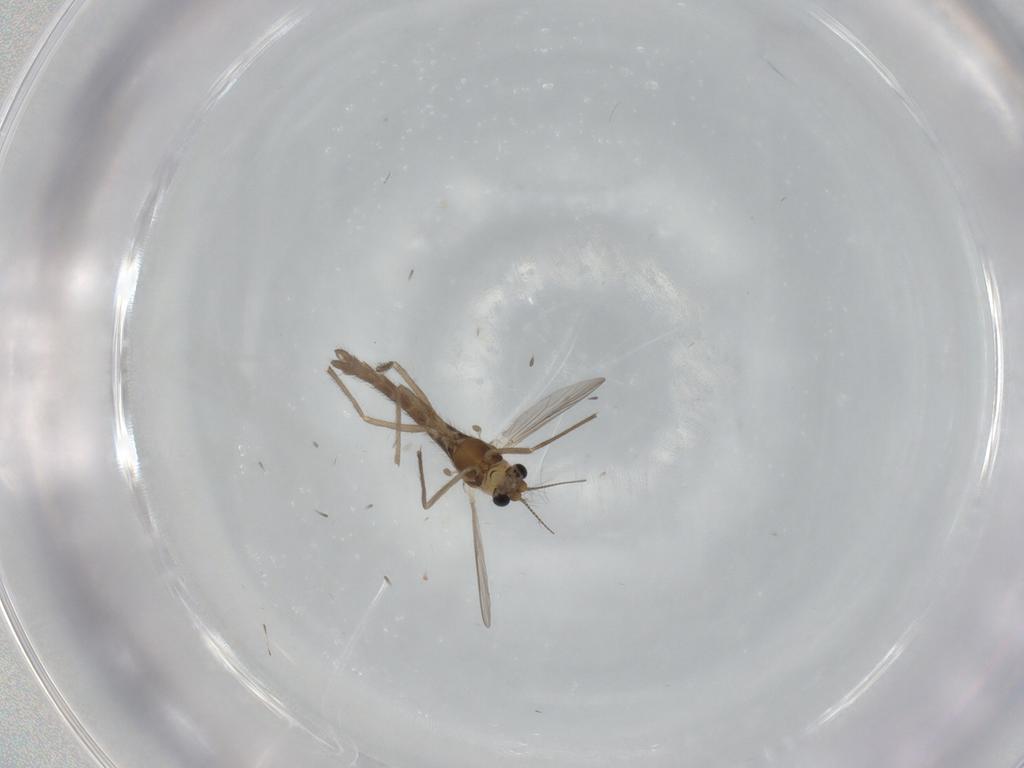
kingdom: Animalia
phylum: Arthropoda
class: Insecta
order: Diptera
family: Chironomidae
